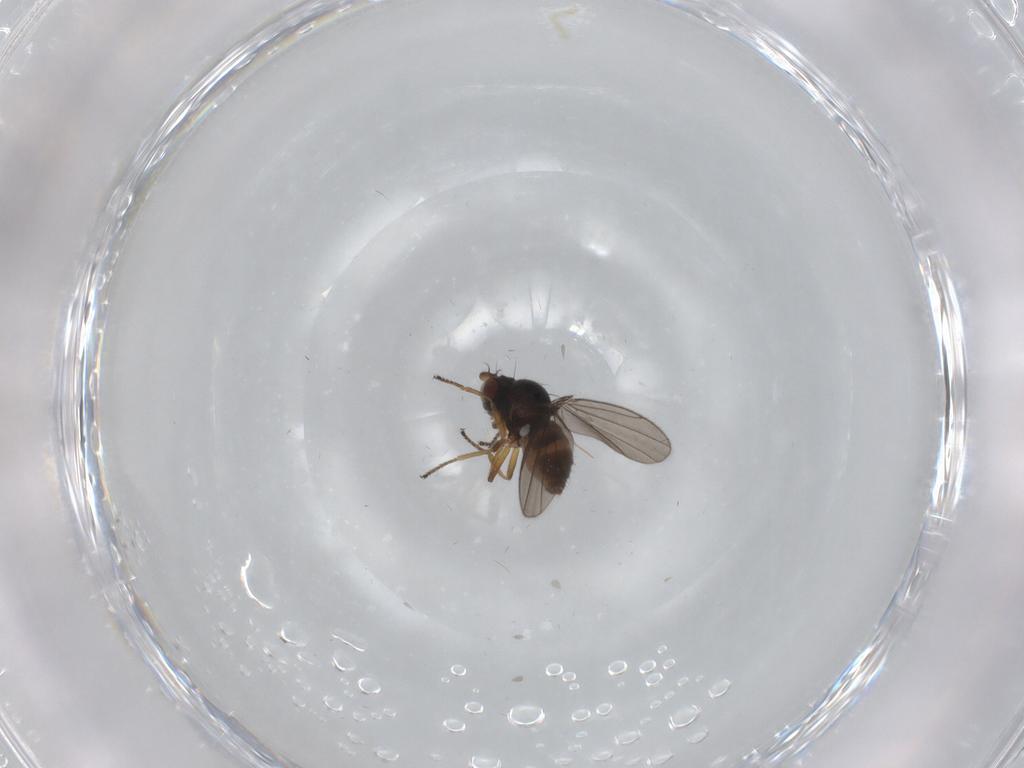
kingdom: Animalia
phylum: Arthropoda
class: Insecta
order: Diptera
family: Ephydridae
